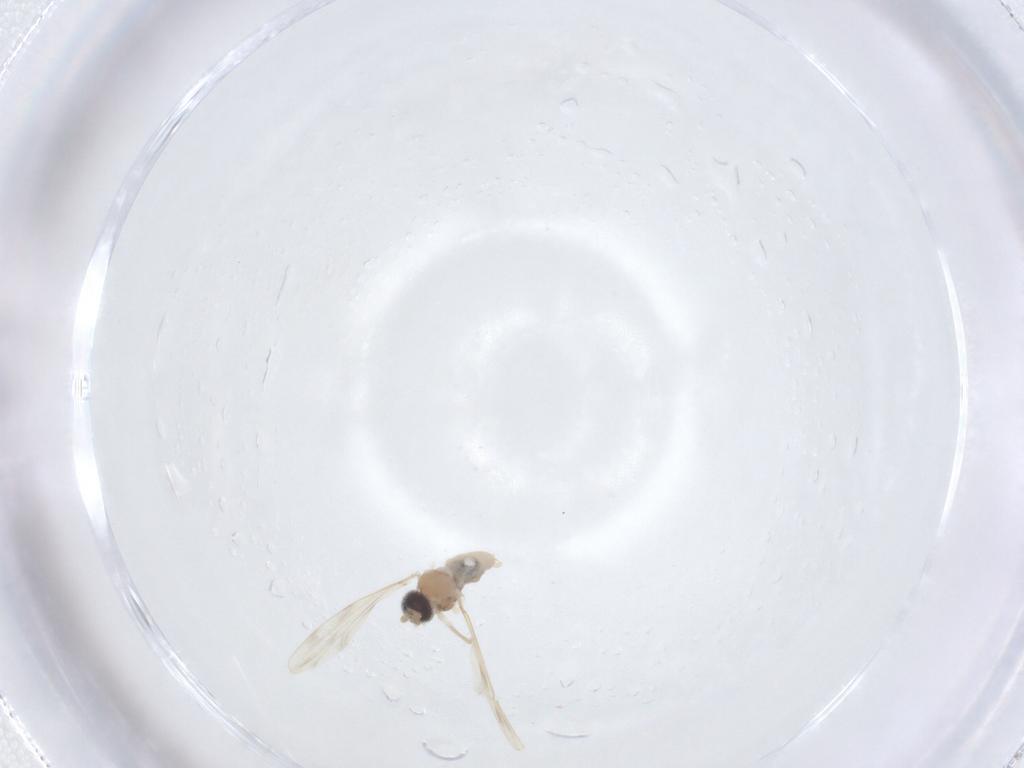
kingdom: Animalia
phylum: Arthropoda
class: Insecta
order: Diptera
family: Cecidomyiidae
